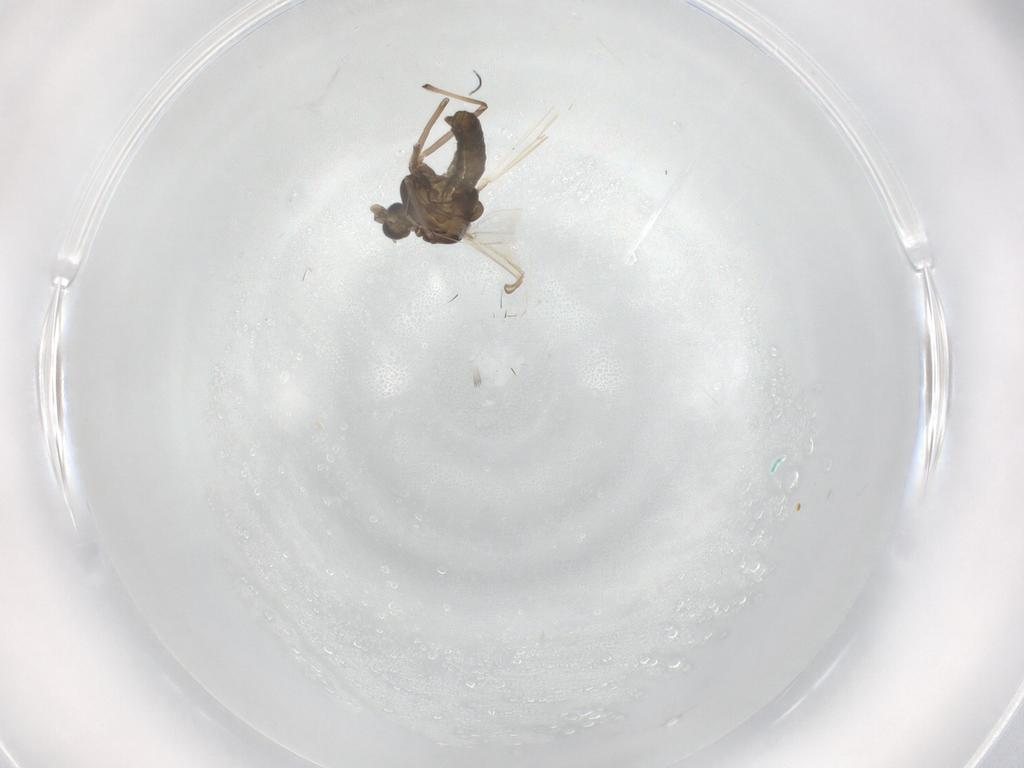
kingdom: Animalia
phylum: Arthropoda
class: Insecta
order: Diptera
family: Chironomidae
